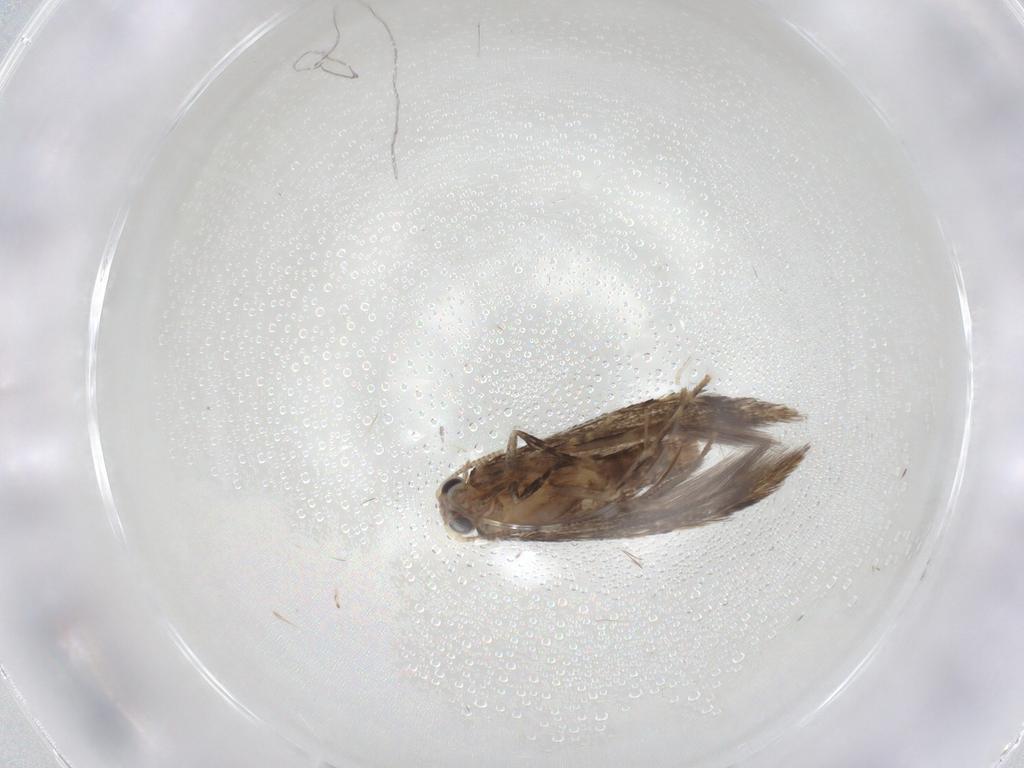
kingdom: Animalia
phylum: Arthropoda
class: Insecta
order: Lepidoptera
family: Tineidae
